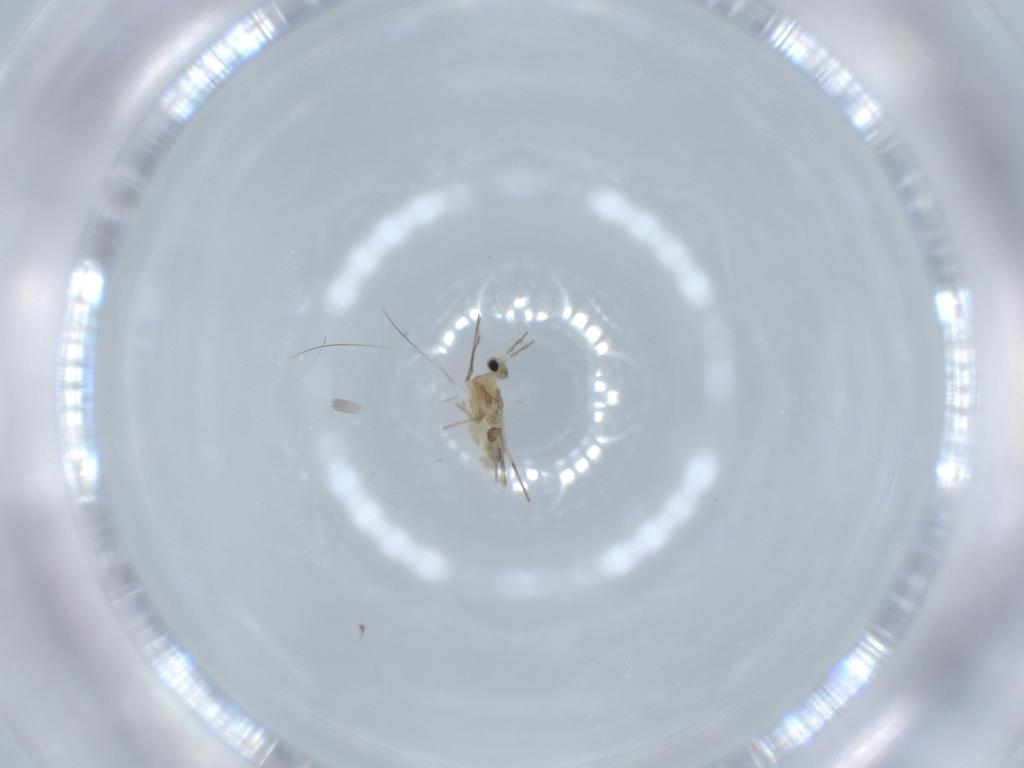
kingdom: Animalia
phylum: Arthropoda
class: Insecta
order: Diptera
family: Cecidomyiidae
